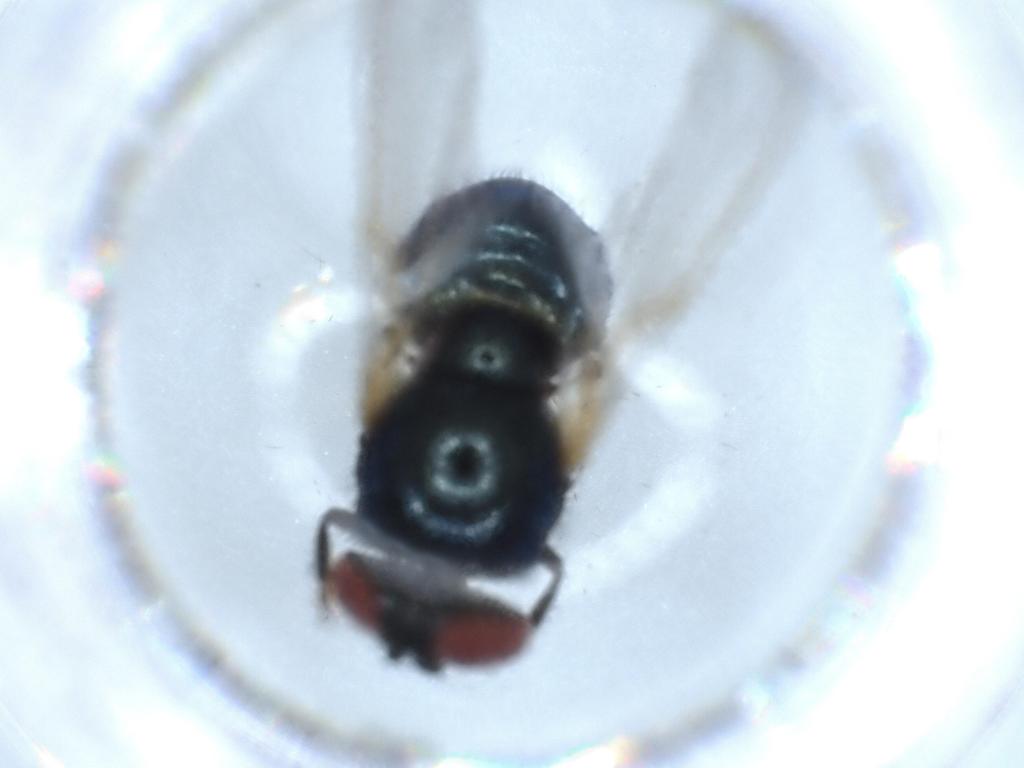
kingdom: Animalia
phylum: Arthropoda
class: Insecta
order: Diptera
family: Lonchaeidae
